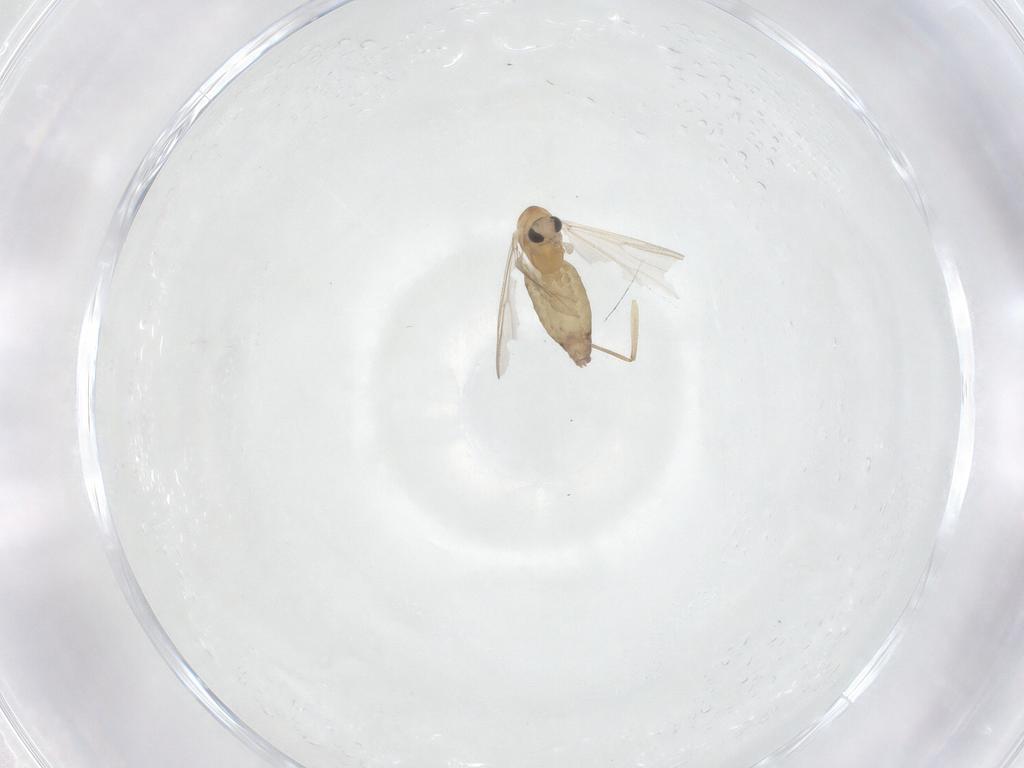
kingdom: Animalia
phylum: Arthropoda
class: Insecta
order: Diptera
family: Chironomidae
